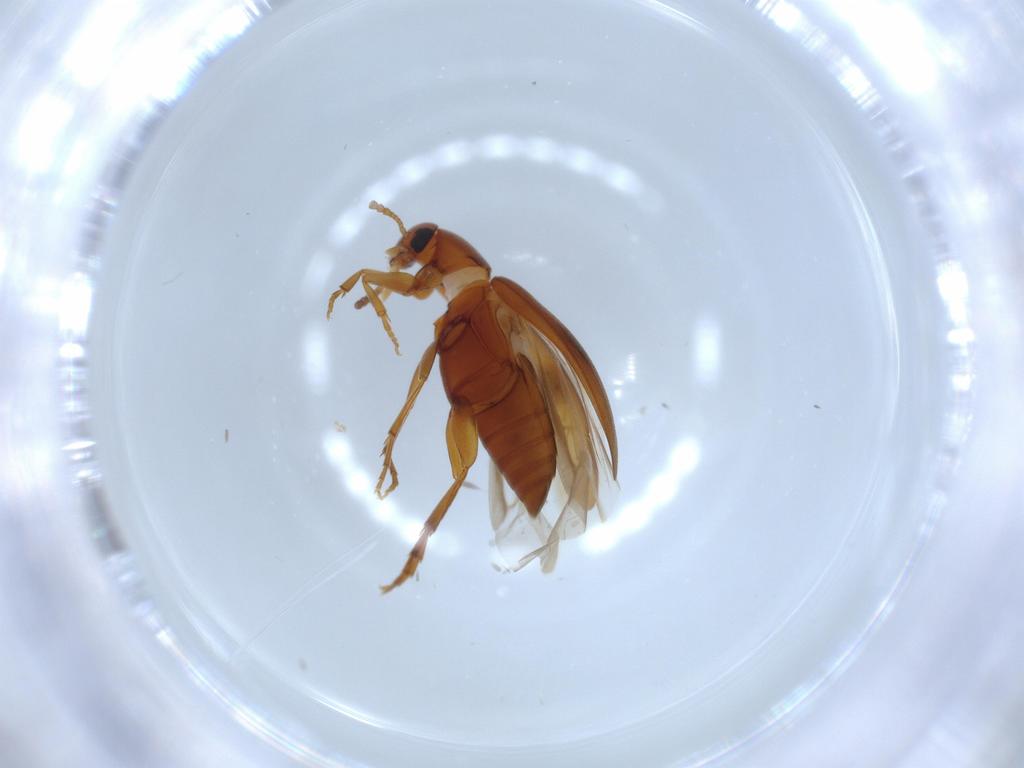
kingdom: Animalia
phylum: Arthropoda
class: Insecta
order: Coleoptera
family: Scraptiidae
